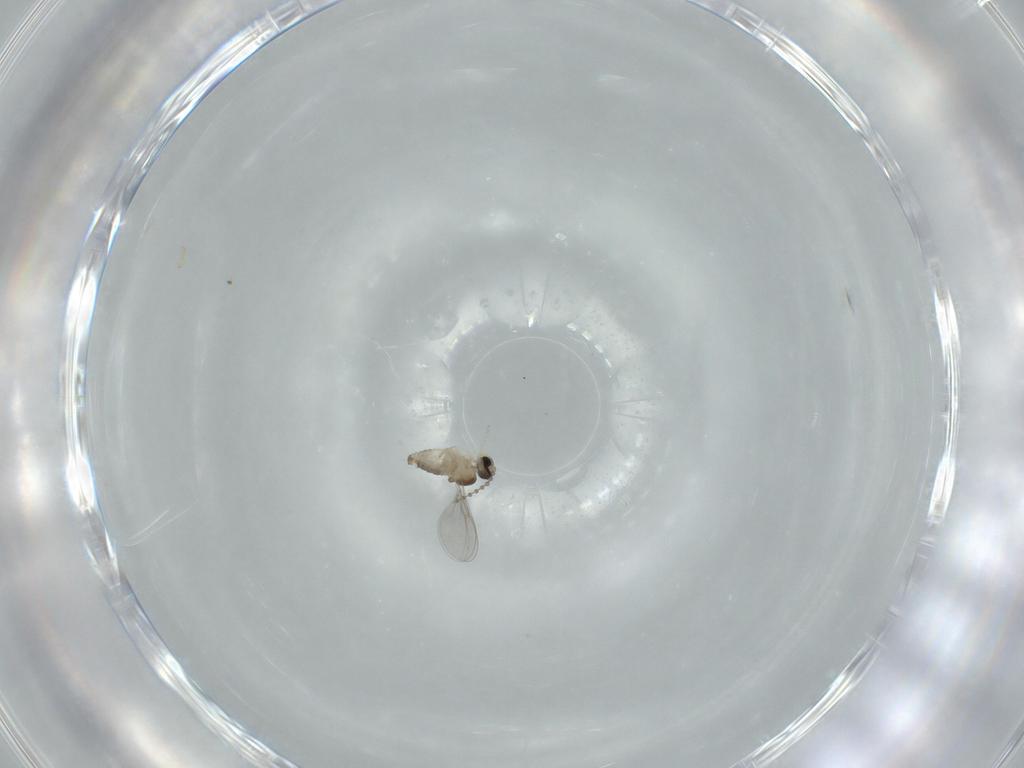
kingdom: Animalia
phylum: Arthropoda
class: Insecta
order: Diptera
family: Cecidomyiidae
